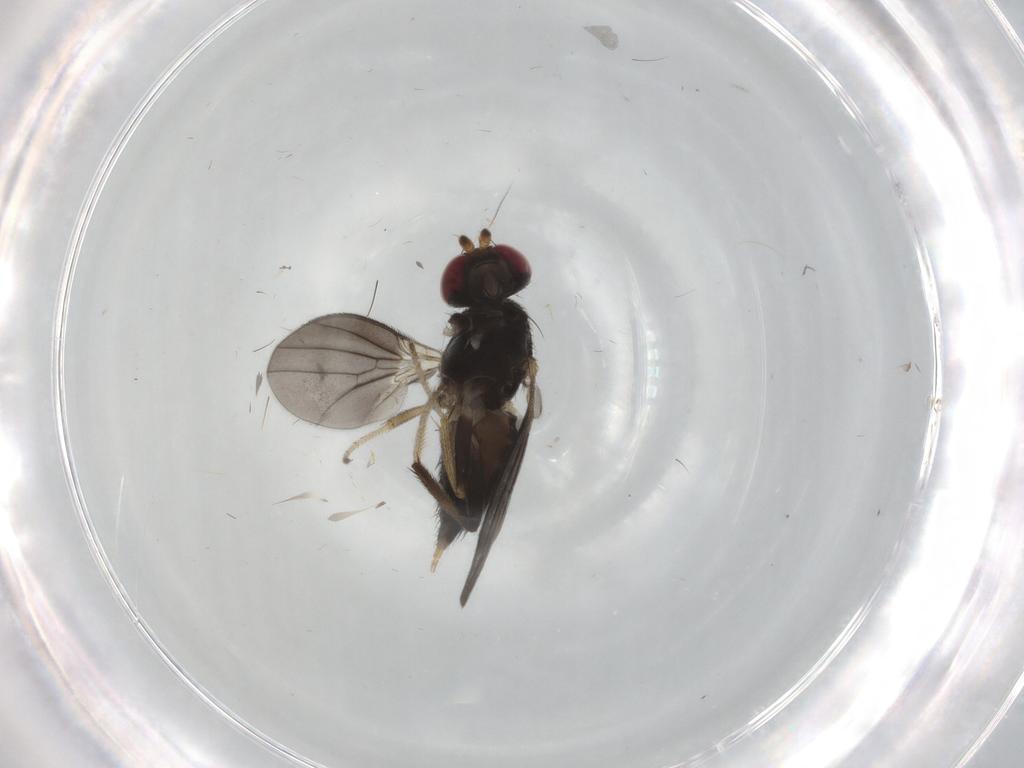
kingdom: Animalia
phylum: Arthropoda
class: Insecta
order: Diptera
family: Clusiidae
